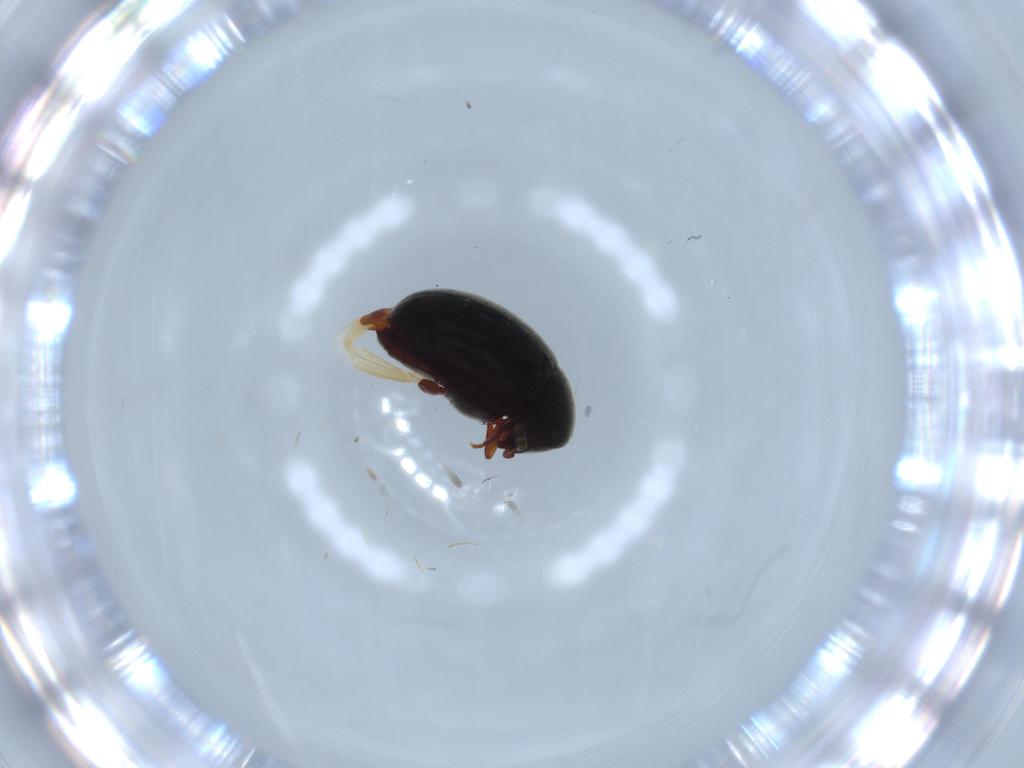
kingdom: Animalia
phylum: Arthropoda
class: Insecta
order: Coleoptera
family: Ptinidae
